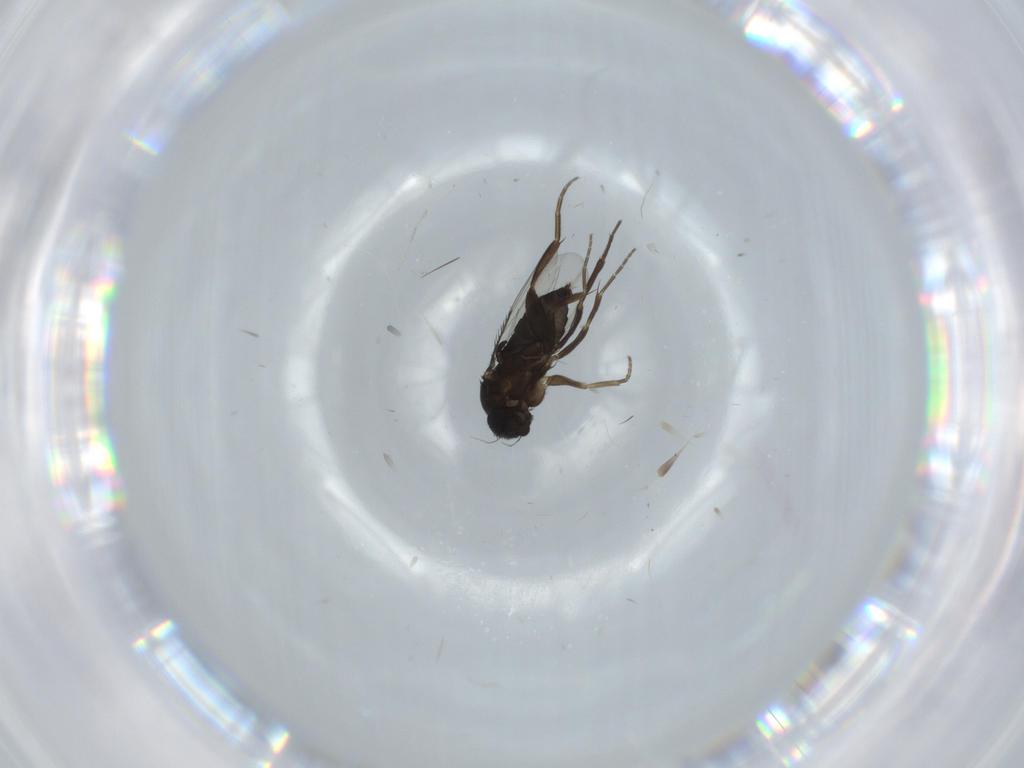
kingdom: Animalia
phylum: Arthropoda
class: Insecta
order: Diptera
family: Phoridae
